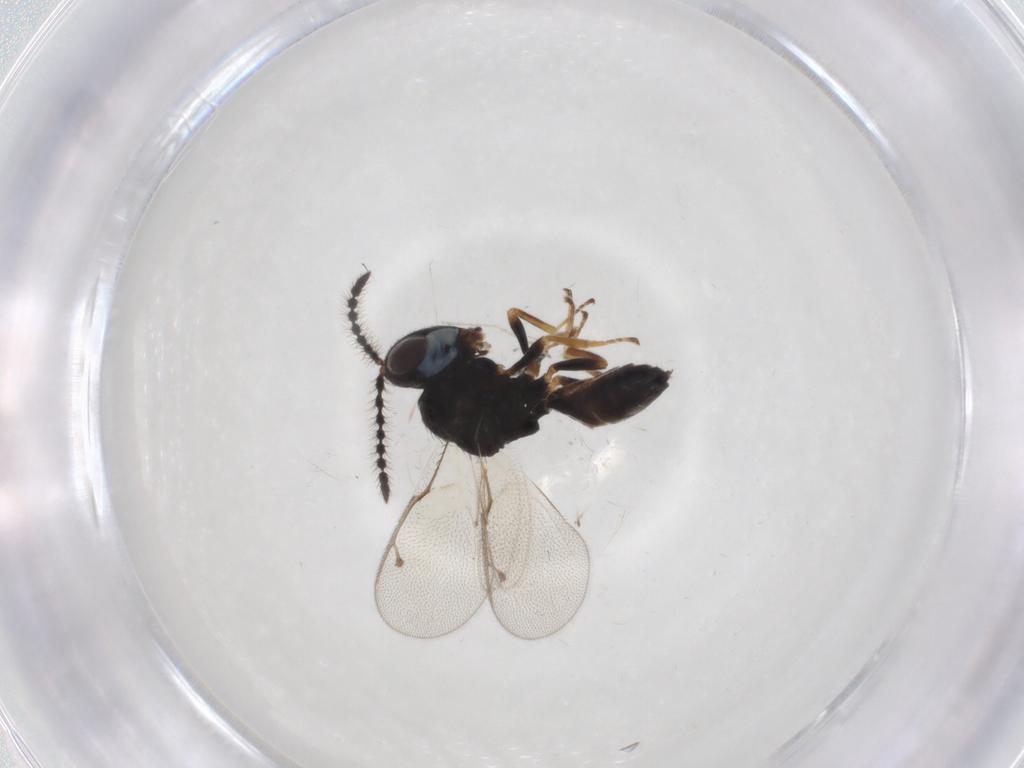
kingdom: Animalia
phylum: Arthropoda
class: Insecta
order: Hymenoptera
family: Pteromalidae
